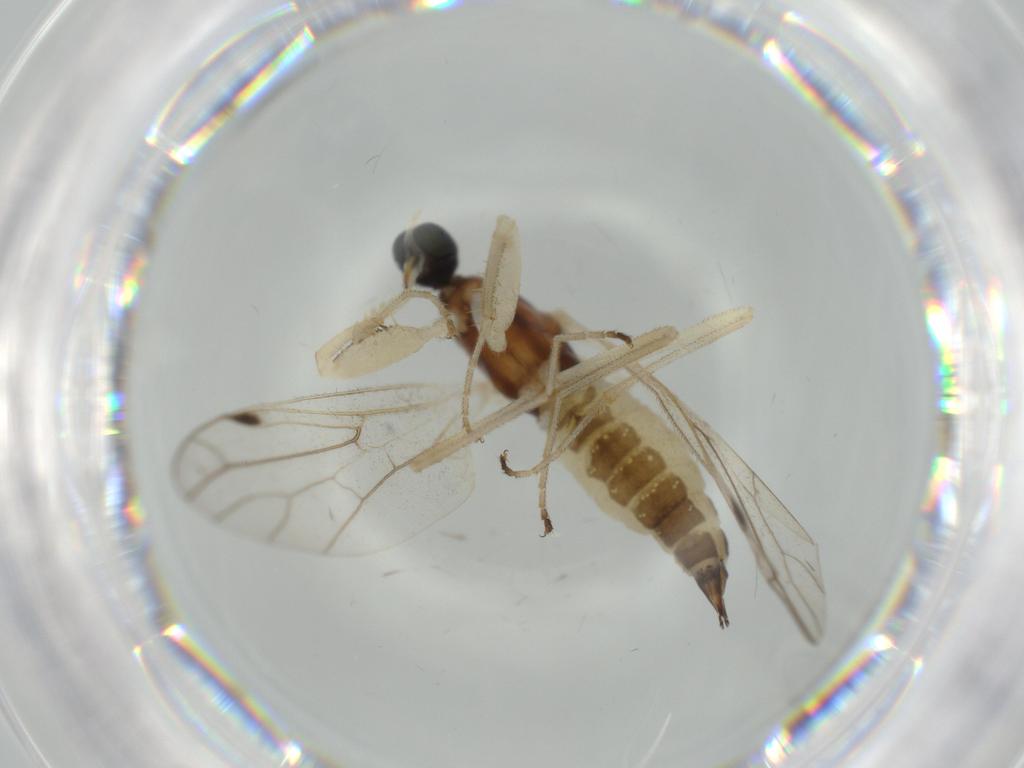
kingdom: Animalia
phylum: Arthropoda
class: Insecta
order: Diptera
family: Empididae
